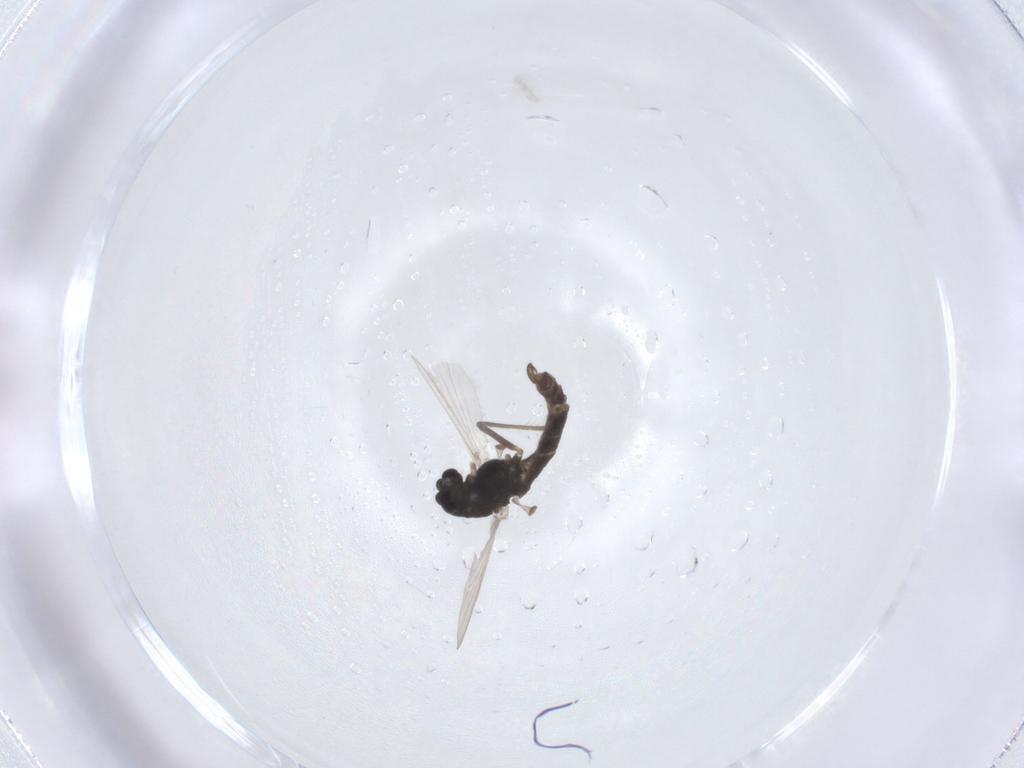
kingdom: Animalia
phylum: Arthropoda
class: Insecta
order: Diptera
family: Chironomidae
